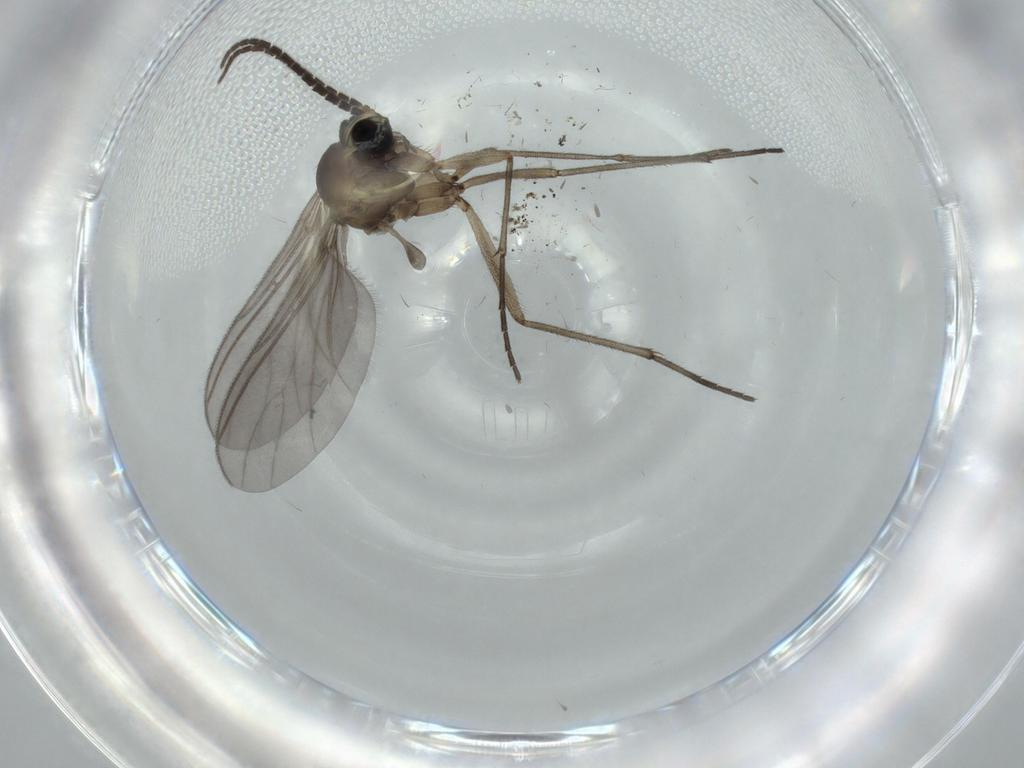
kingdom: Animalia
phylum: Arthropoda
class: Insecta
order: Diptera
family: Sciaridae
